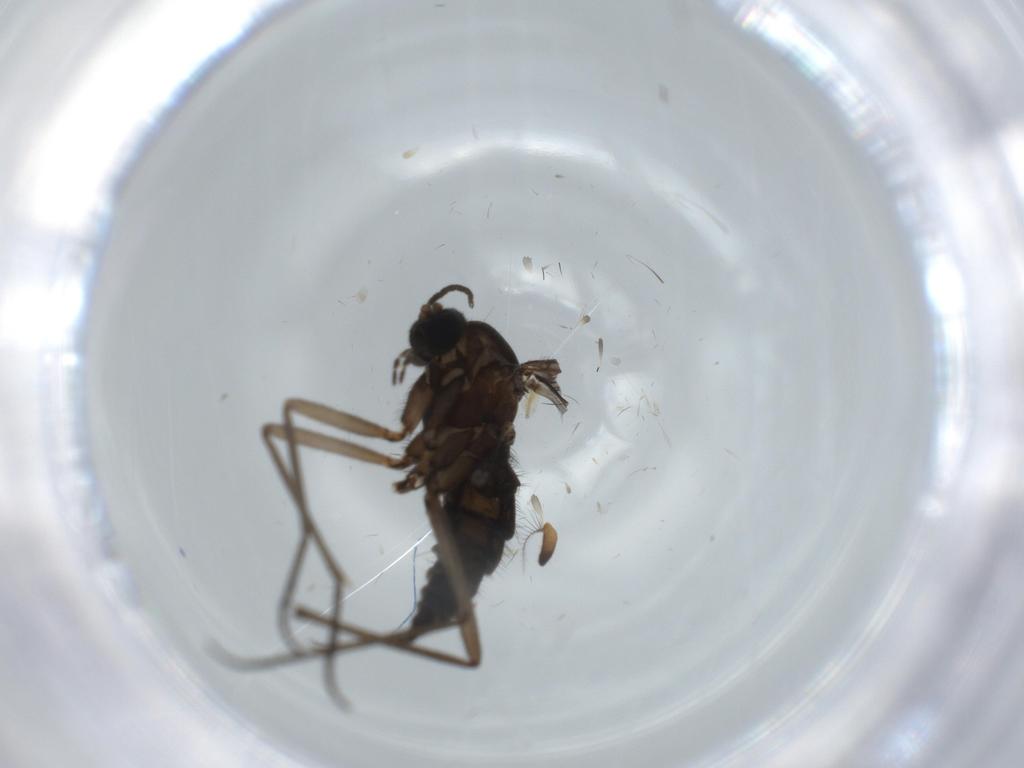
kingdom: Animalia
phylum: Arthropoda
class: Insecta
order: Diptera
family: Sciaridae
